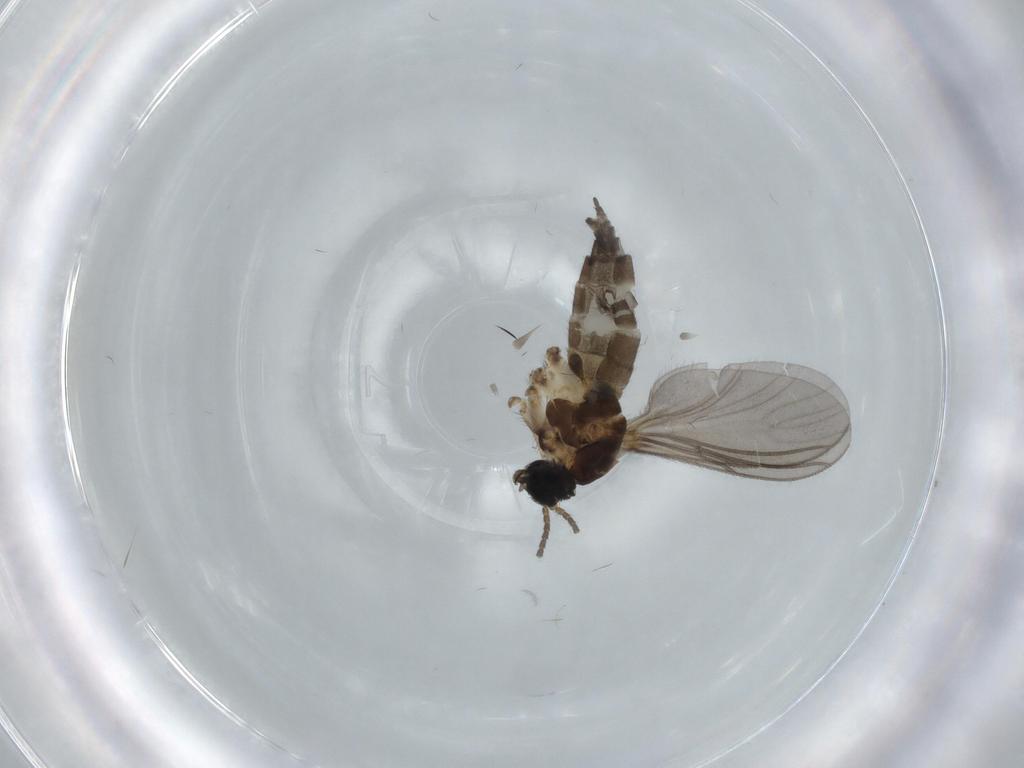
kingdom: Animalia
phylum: Arthropoda
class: Insecta
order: Diptera
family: Sciaridae
